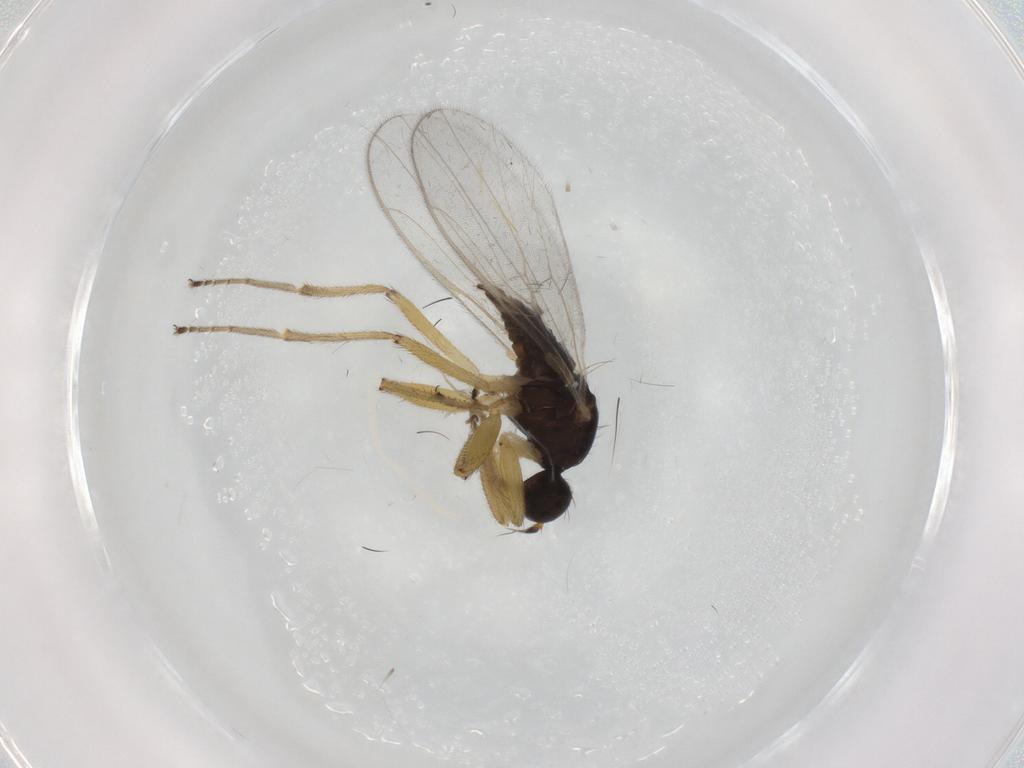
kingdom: Animalia
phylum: Arthropoda
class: Insecta
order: Diptera
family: Hybotidae
